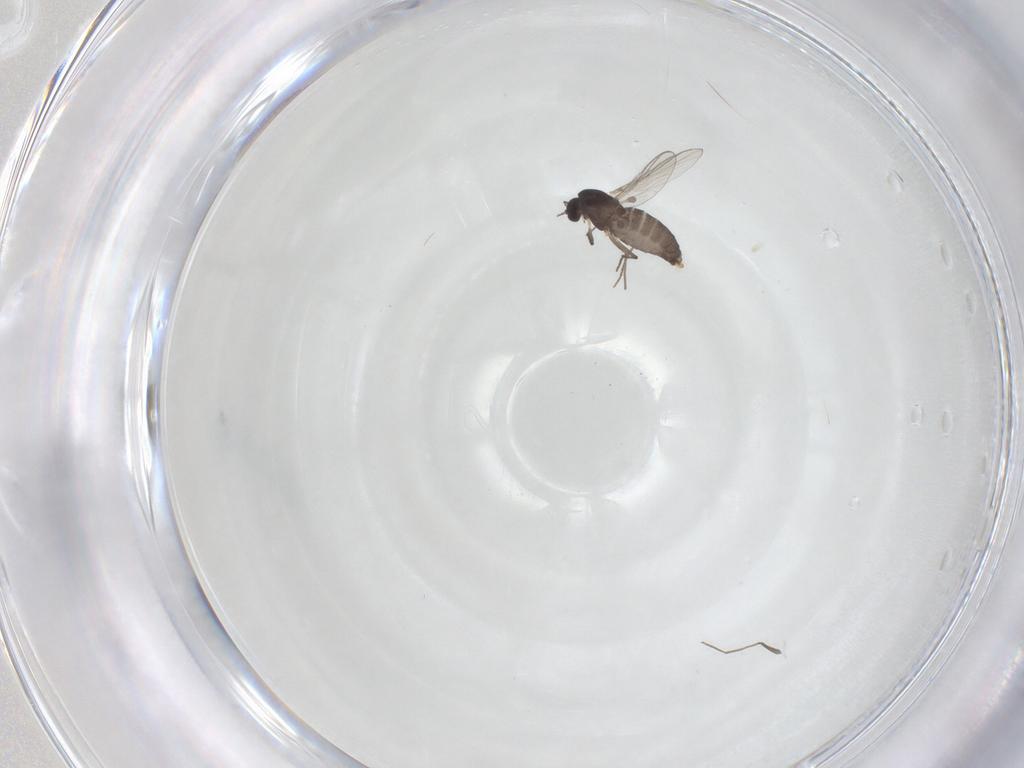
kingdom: Animalia
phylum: Arthropoda
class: Insecta
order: Diptera
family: Chironomidae
